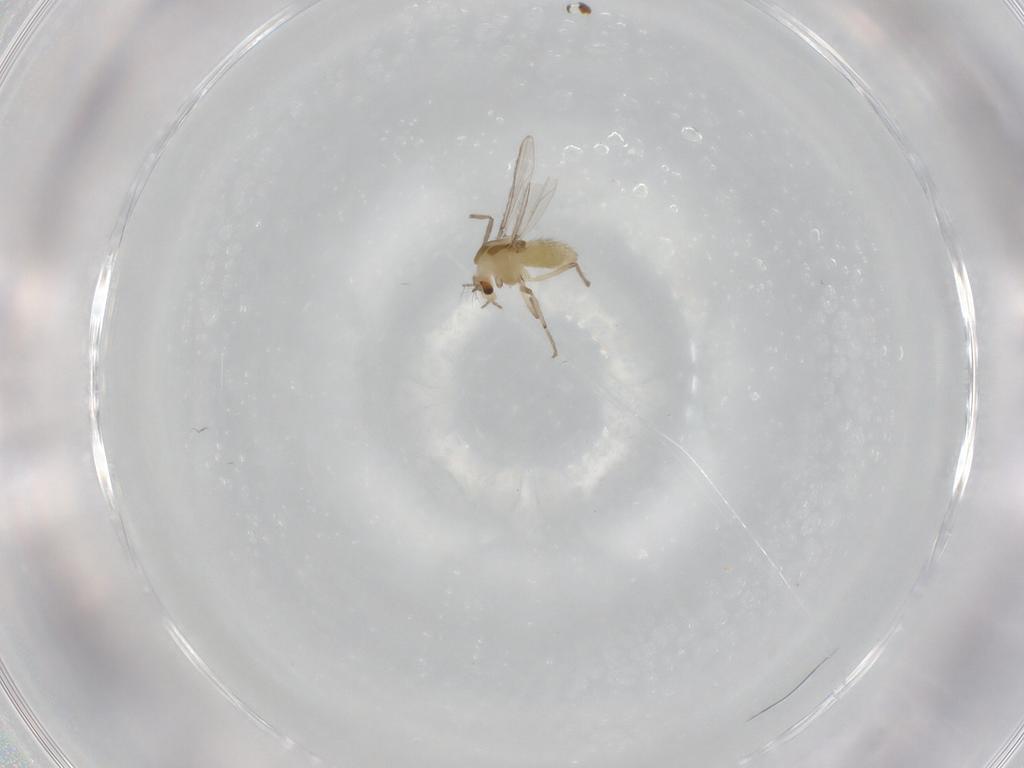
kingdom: Animalia
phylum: Arthropoda
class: Insecta
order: Diptera
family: Chironomidae
